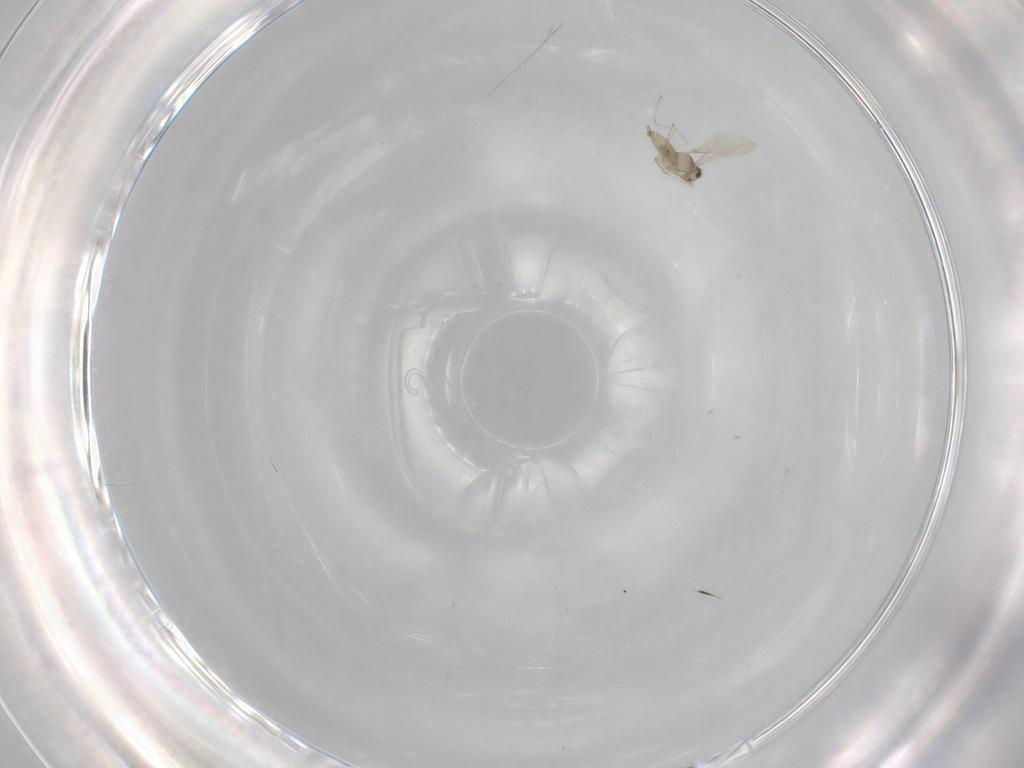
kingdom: Animalia
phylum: Arthropoda
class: Insecta
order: Diptera
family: Cecidomyiidae
